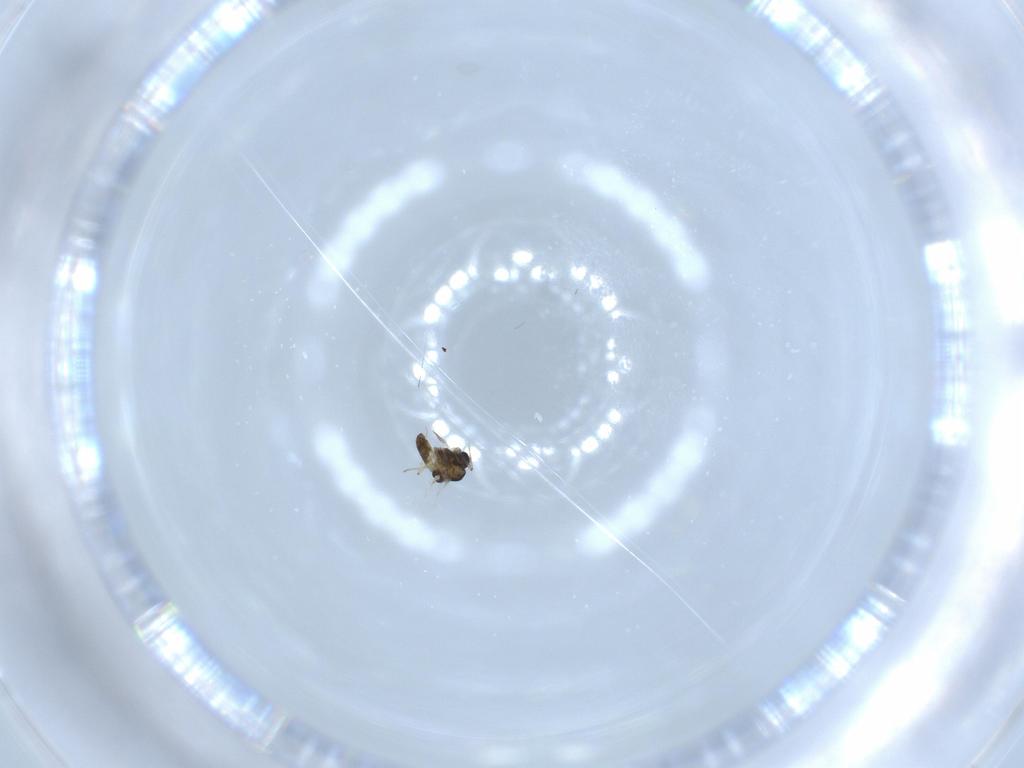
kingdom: Animalia
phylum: Arthropoda
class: Insecta
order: Diptera
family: Chironomidae
